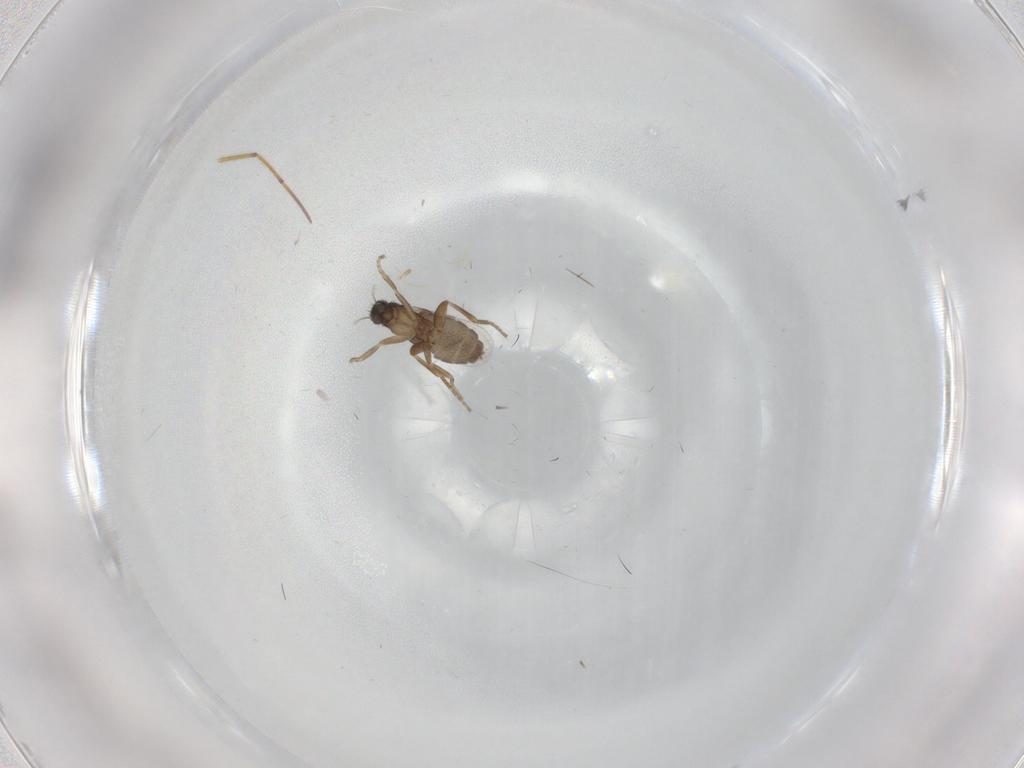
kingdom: Animalia
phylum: Arthropoda
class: Insecta
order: Diptera
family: Phoridae
